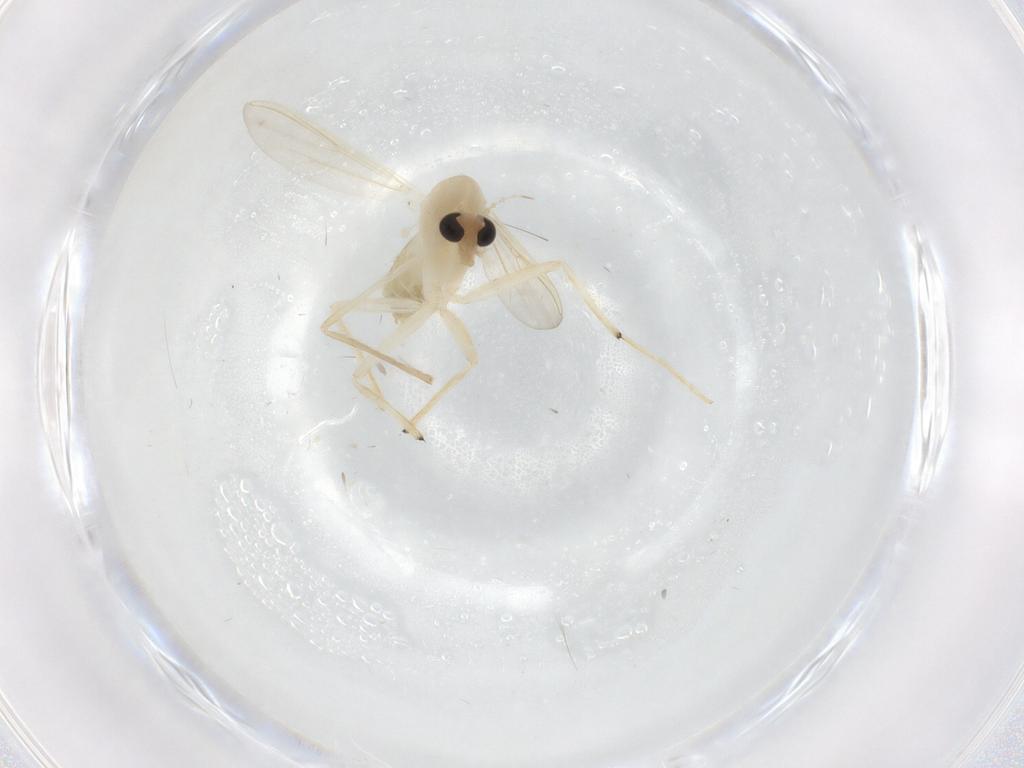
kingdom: Animalia
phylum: Arthropoda
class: Insecta
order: Diptera
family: Chironomidae
